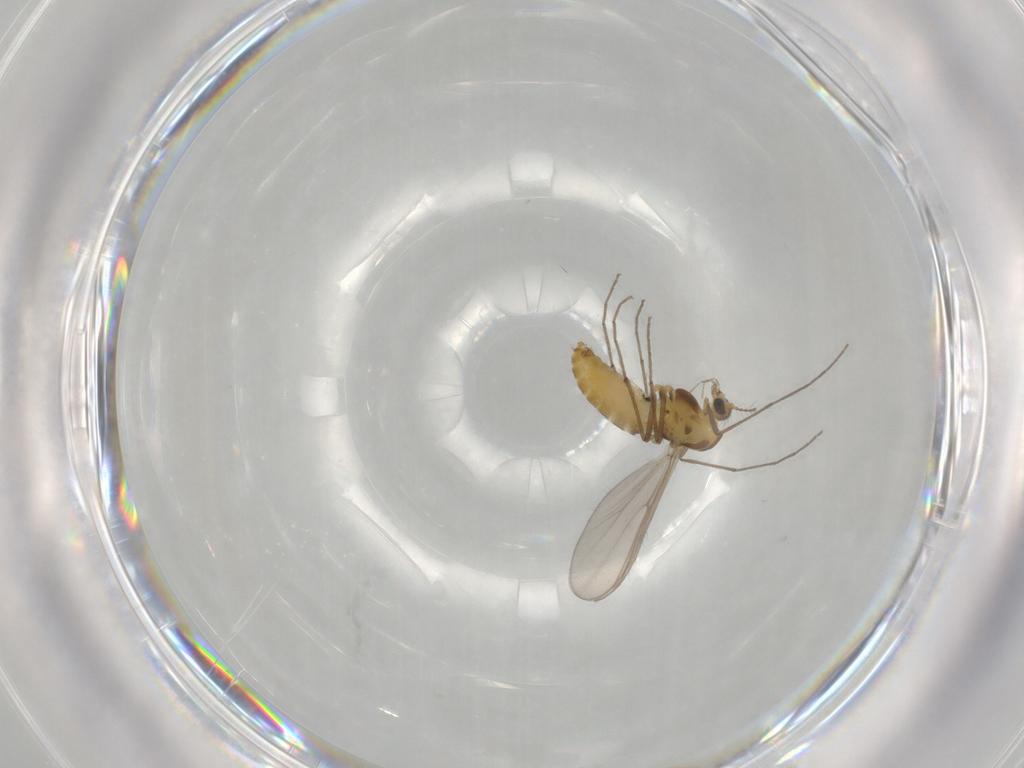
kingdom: Animalia
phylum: Arthropoda
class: Insecta
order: Diptera
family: Chironomidae
